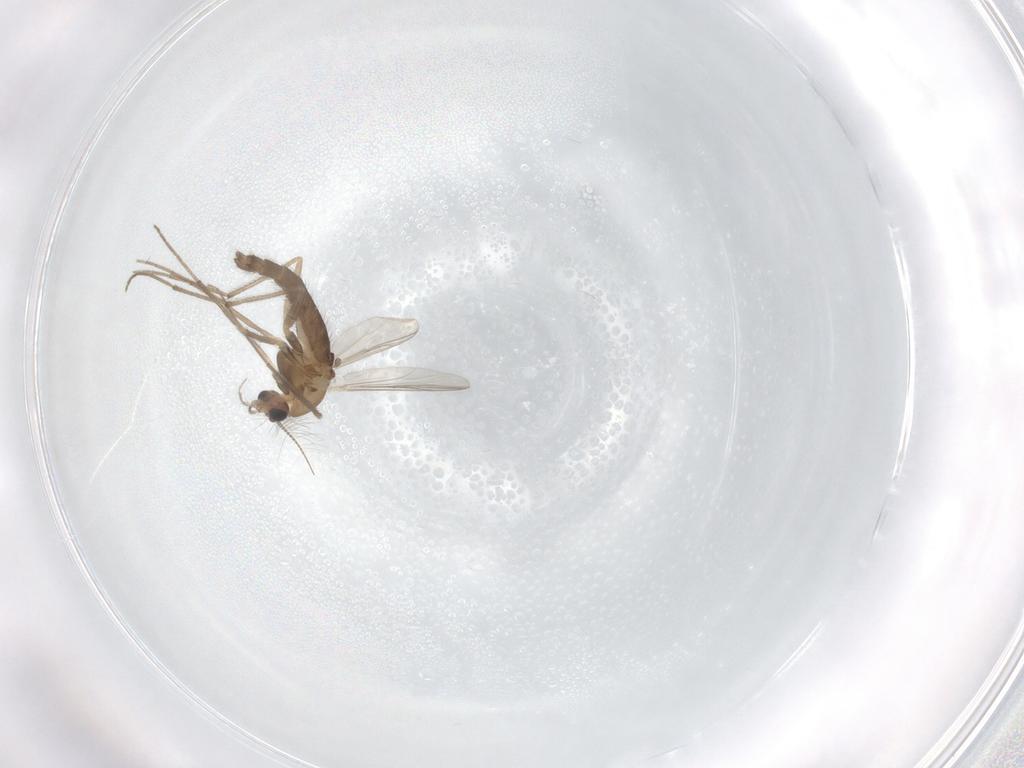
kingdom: Animalia
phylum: Arthropoda
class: Insecta
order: Diptera
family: Chironomidae
